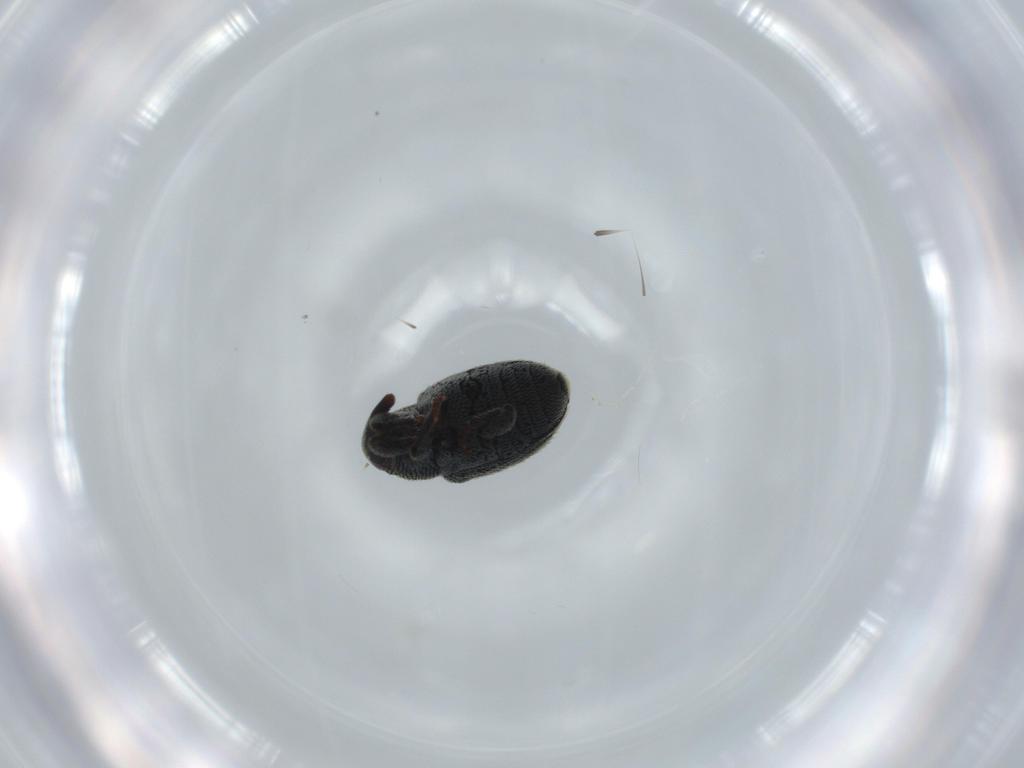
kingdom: Animalia
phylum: Arthropoda
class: Insecta
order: Coleoptera
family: Curculionidae
